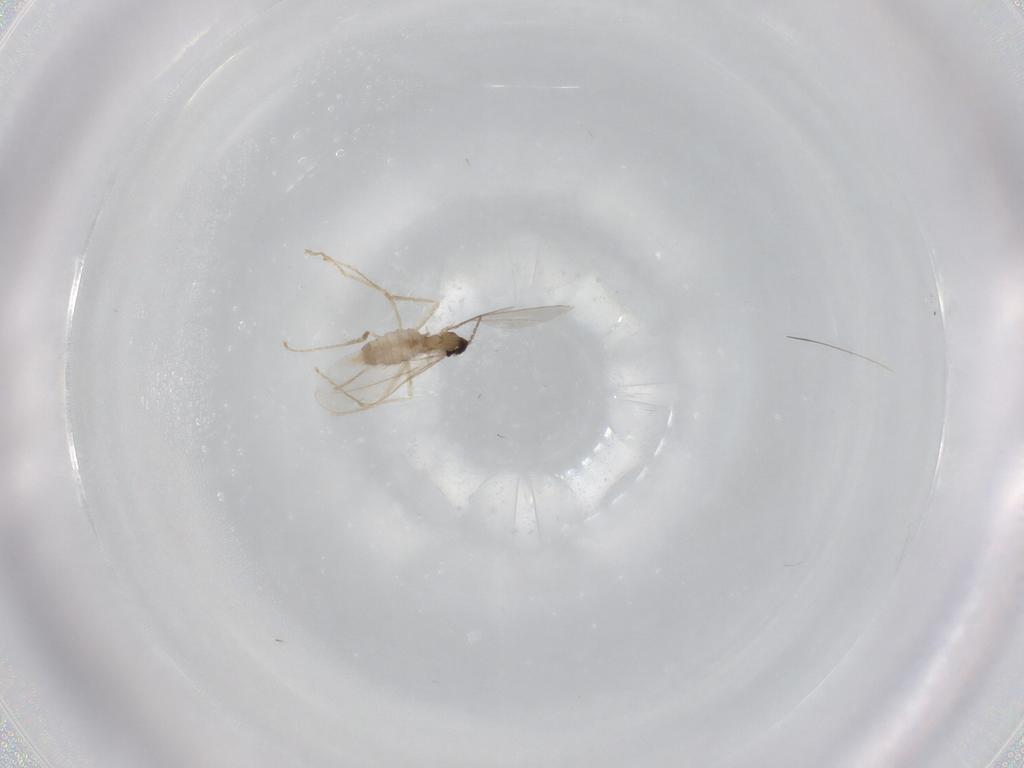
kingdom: Animalia
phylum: Arthropoda
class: Insecta
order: Diptera
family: Cecidomyiidae
